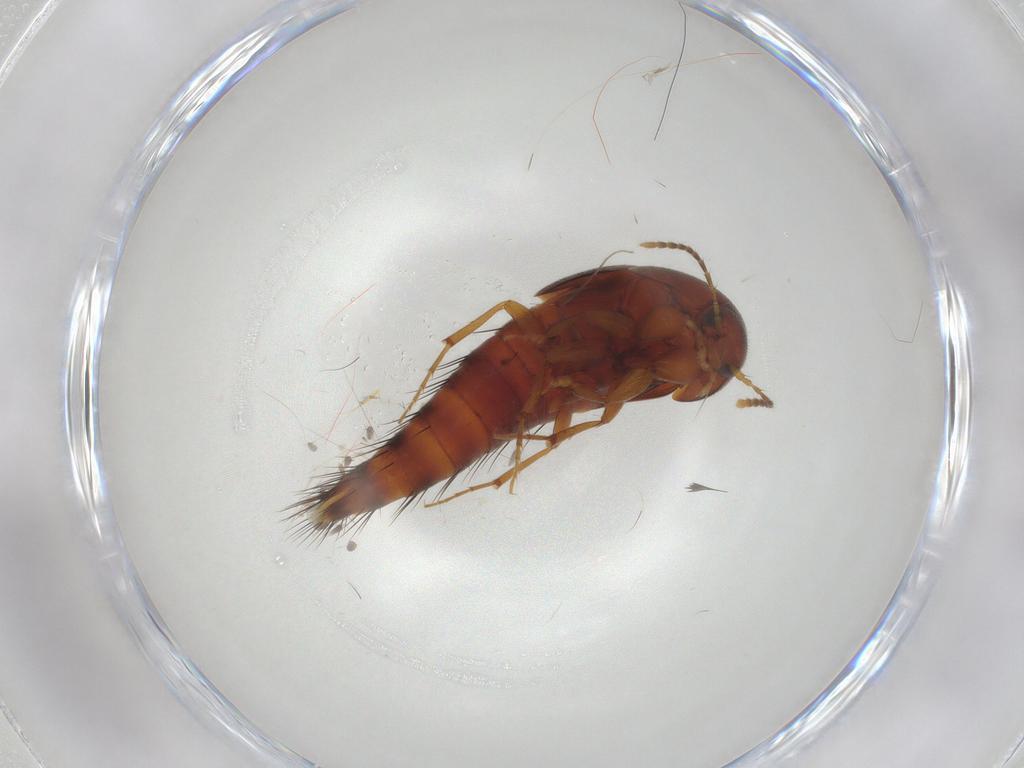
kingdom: Animalia
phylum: Arthropoda
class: Insecta
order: Coleoptera
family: Staphylinidae
